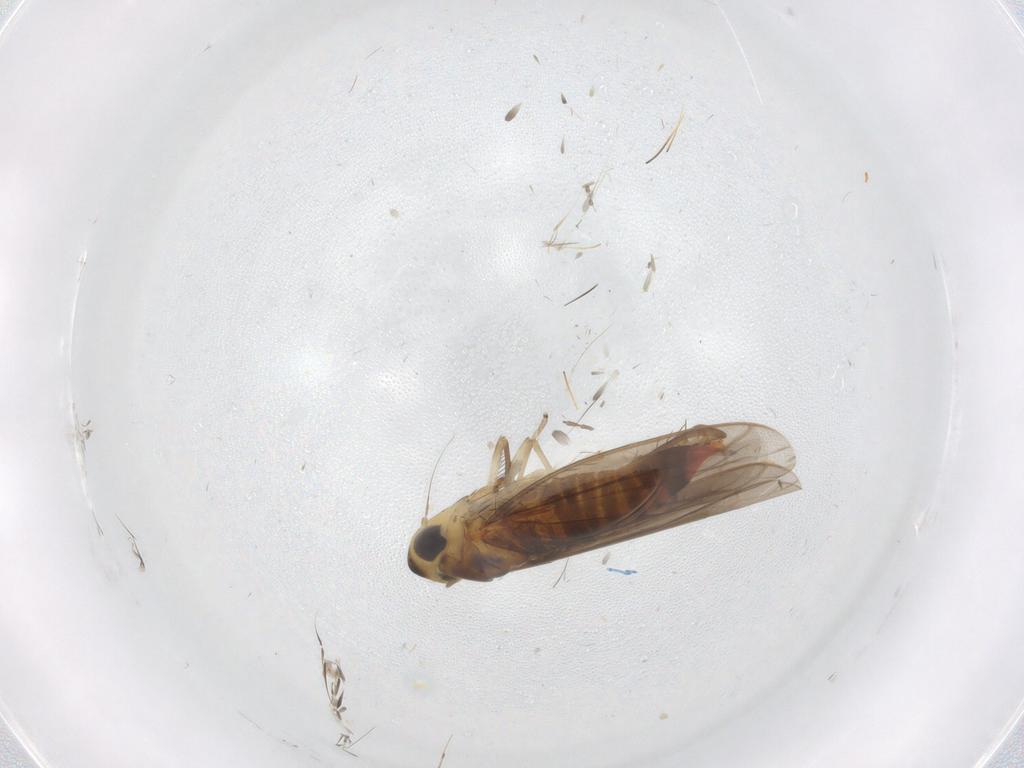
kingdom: Animalia
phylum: Arthropoda
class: Insecta
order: Hemiptera
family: Cicadellidae
